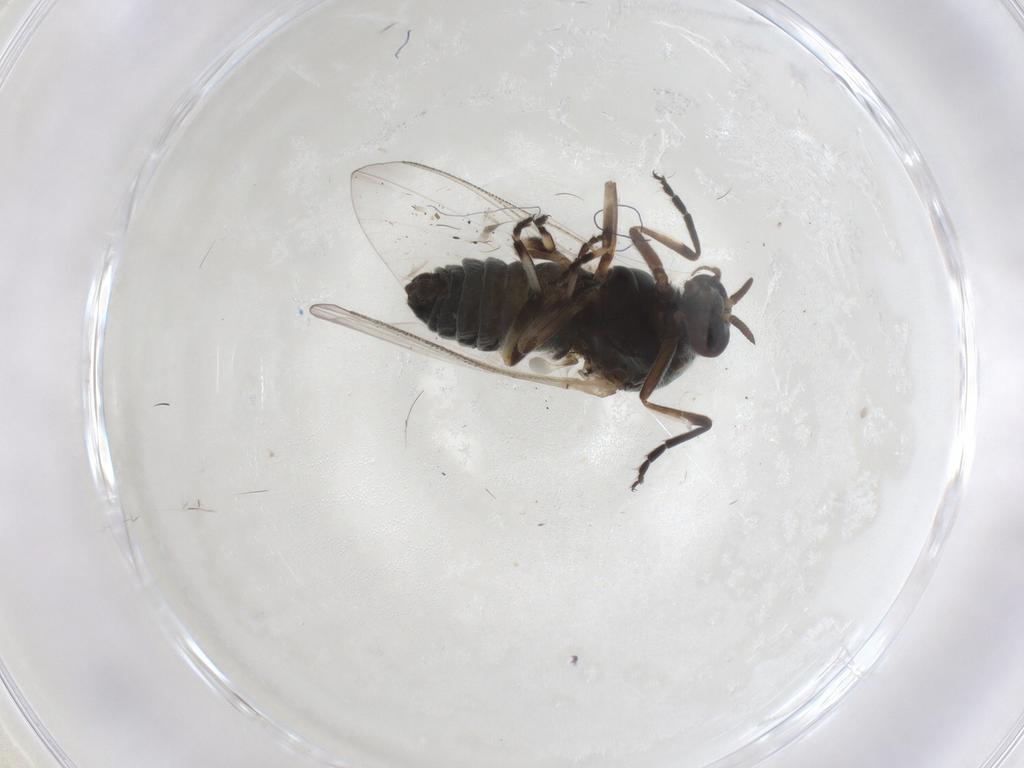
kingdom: Animalia
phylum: Arthropoda
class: Insecta
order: Diptera
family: Simuliidae
